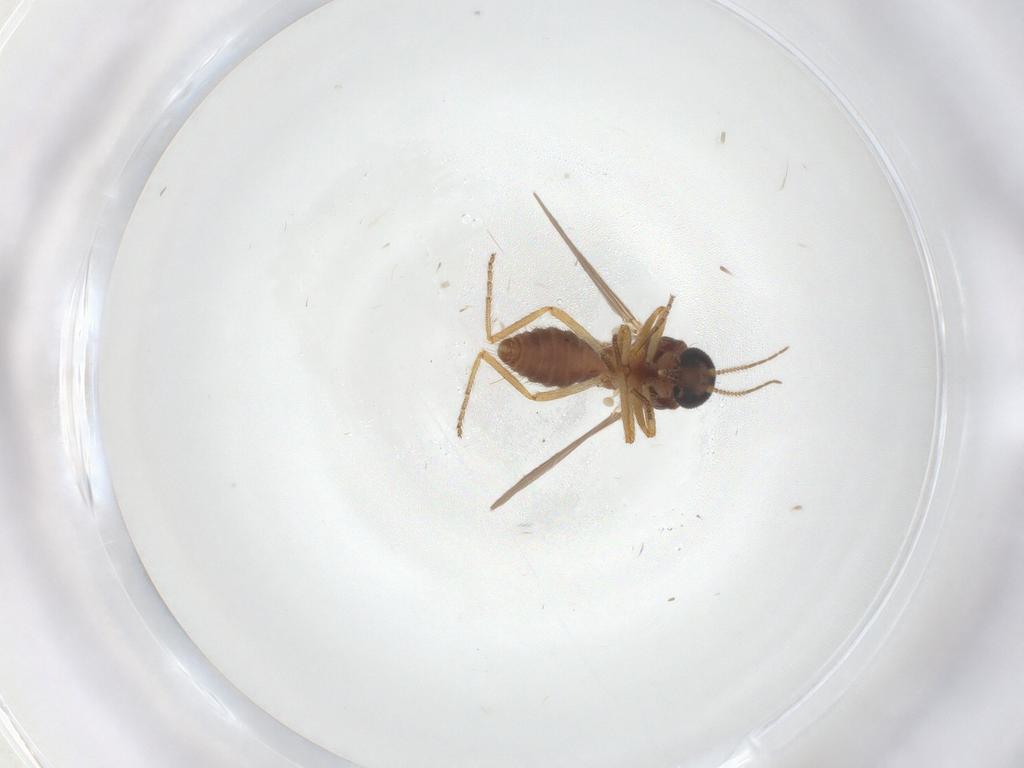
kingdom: Animalia
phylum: Arthropoda
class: Insecta
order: Diptera
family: Ceratopogonidae
